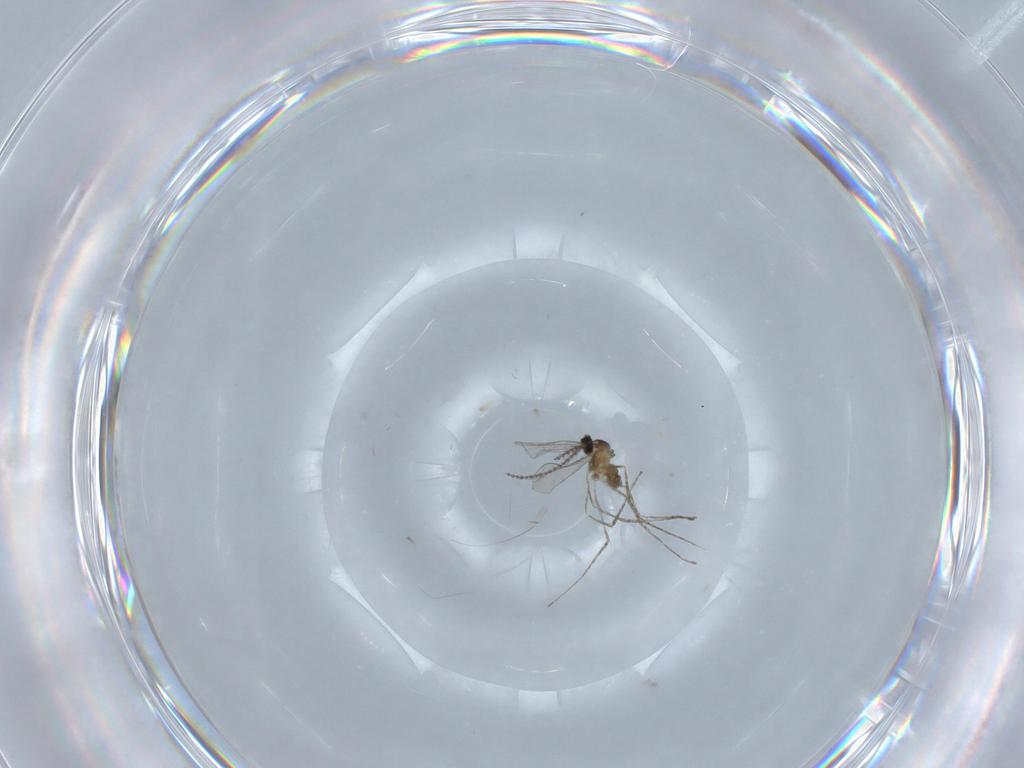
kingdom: Animalia
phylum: Arthropoda
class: Insecta
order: Diptera
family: Cecidomyiidae
